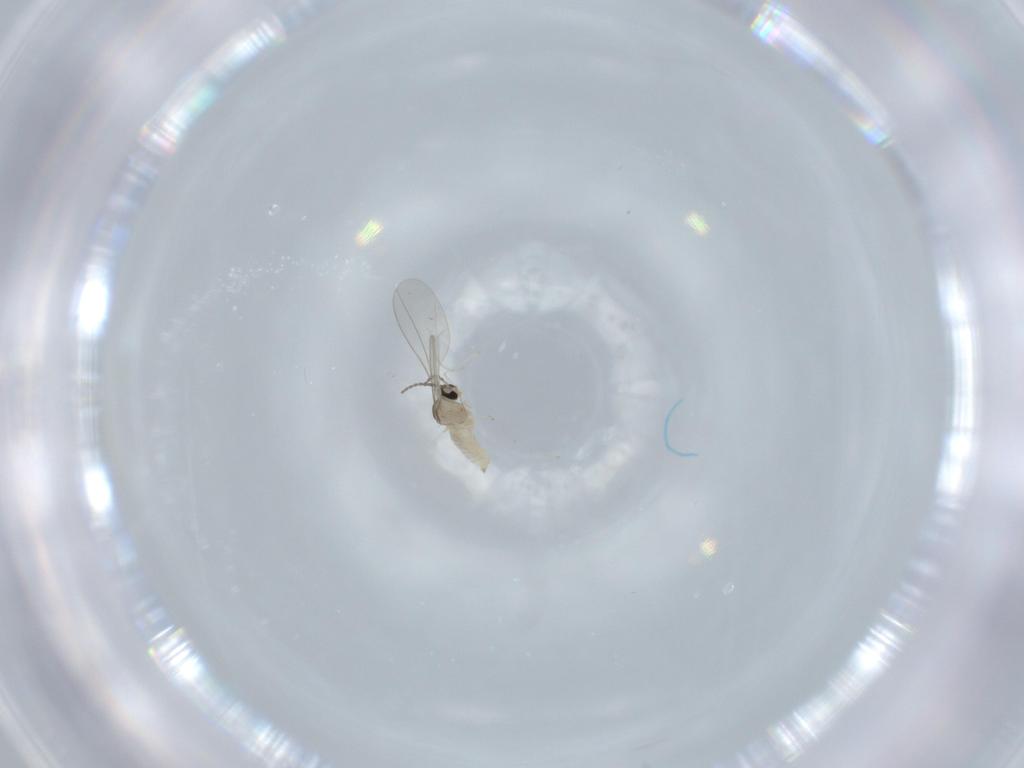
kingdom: Animalia
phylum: Arthropoda
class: Insecta
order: Diptera
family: Cecidomyiidae
